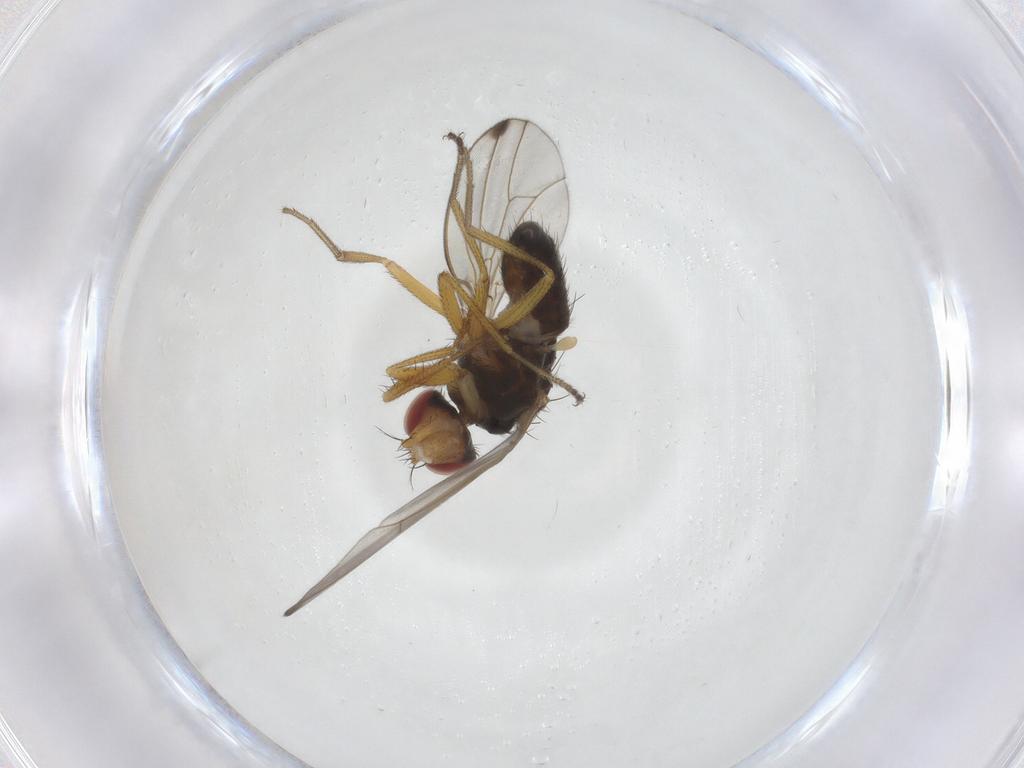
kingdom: Animalia
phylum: Arthropoda
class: Insecta
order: Diptera
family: Drosophilidae
